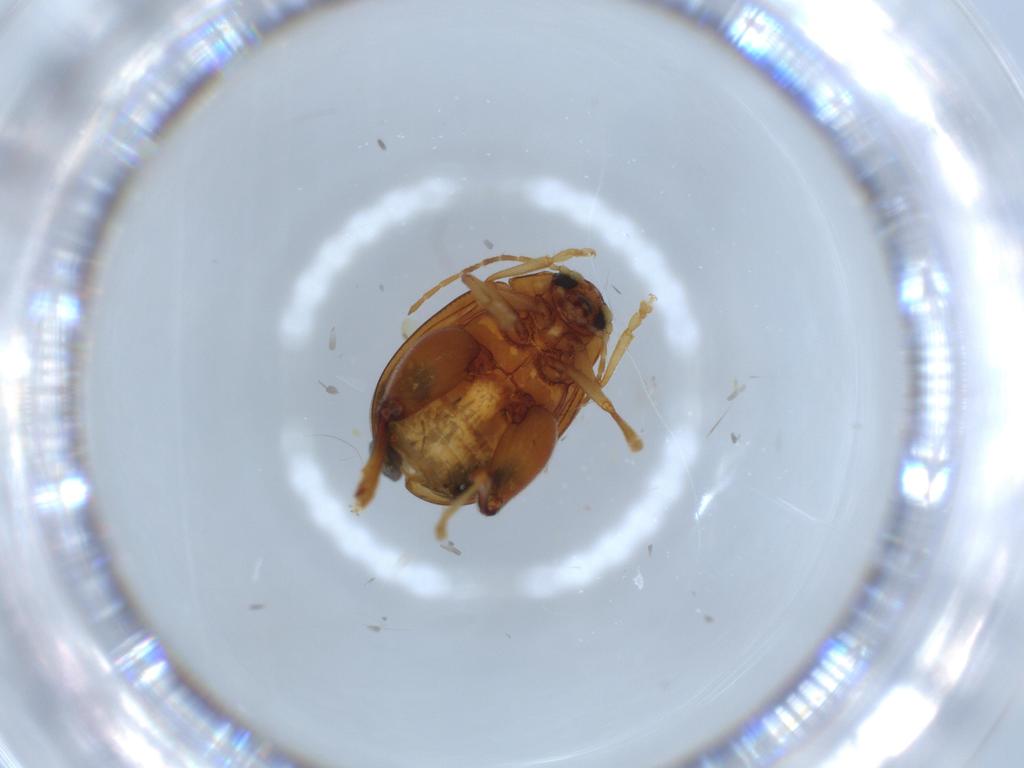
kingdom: Animalia
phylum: Arthropoda
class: Insecta
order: Coleoptera
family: Chrysomelidae
